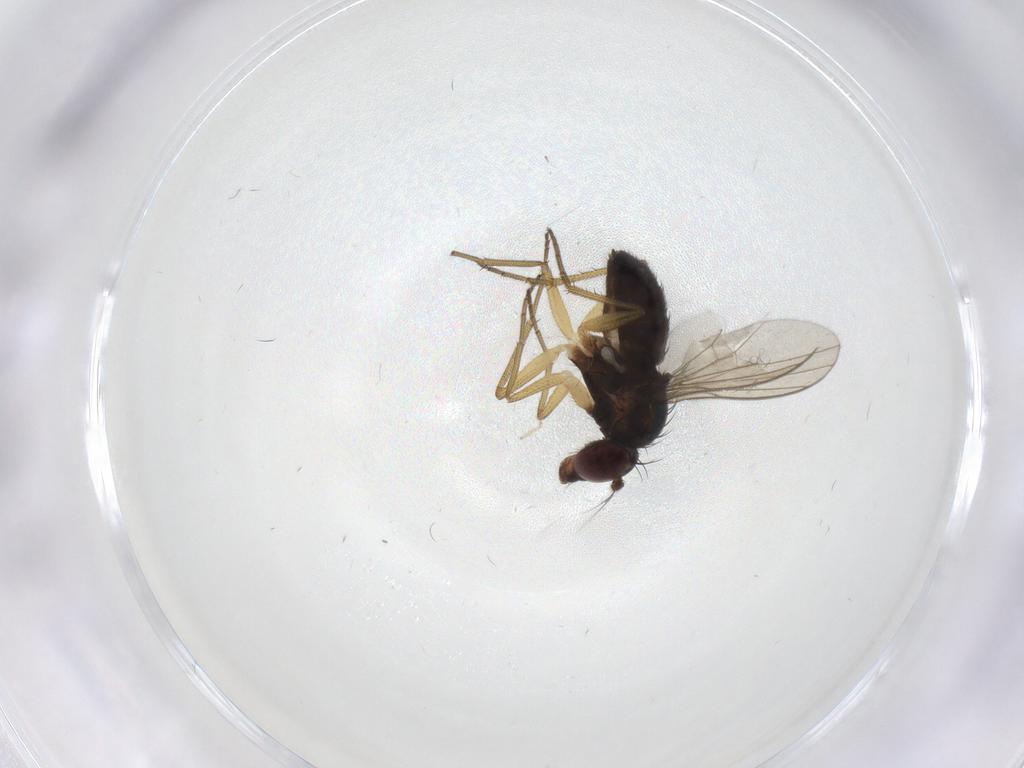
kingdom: Animalia
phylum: Arthropoda
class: Insecta
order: Diptera
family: Dolichopodidae
